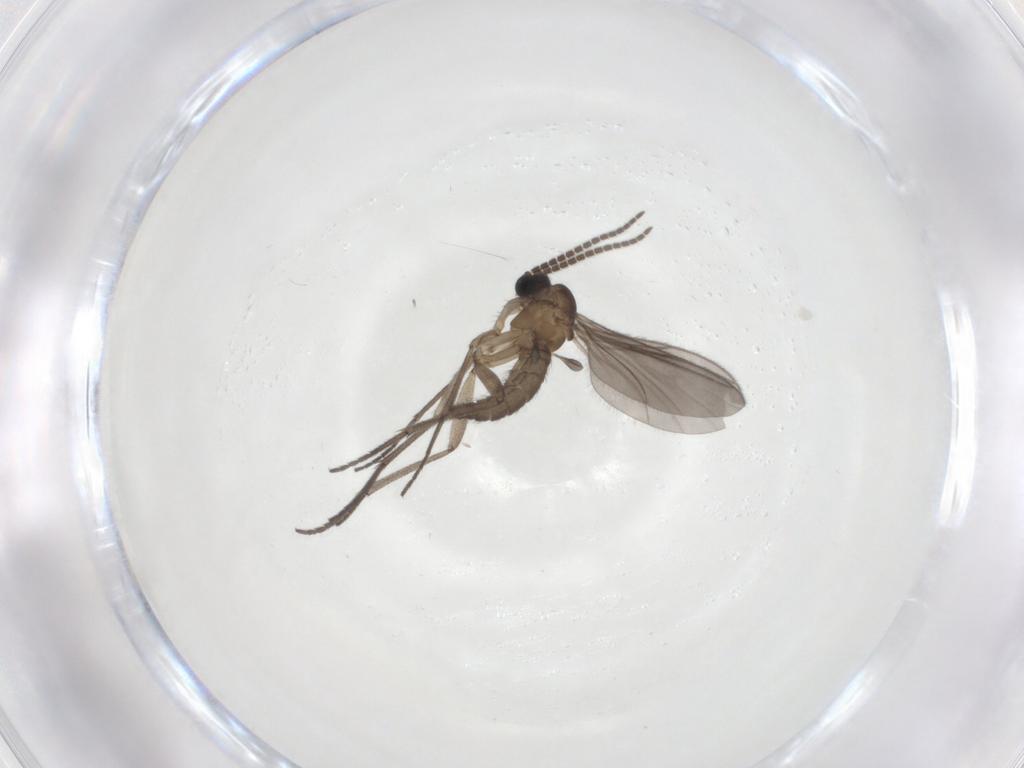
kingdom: Animalia
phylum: Arthropoda
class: Insecta
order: Diptera
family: Sciaridae
